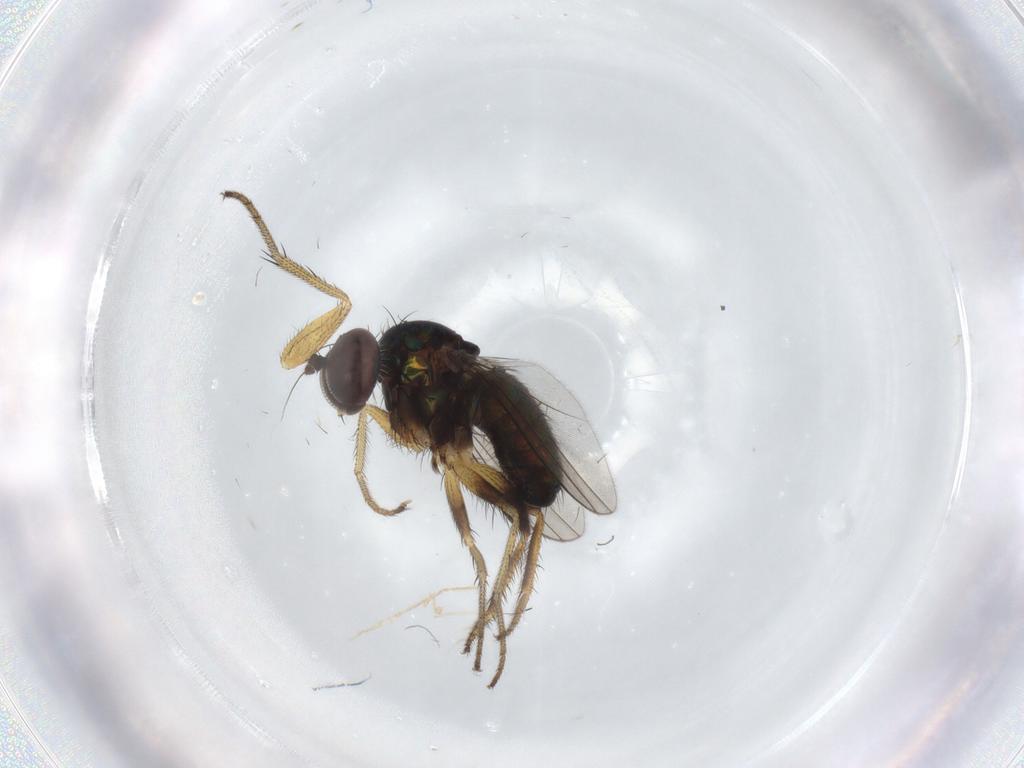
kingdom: Animalia
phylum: Arthropoda
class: Insecta
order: Diptera
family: Dolichopodidae
